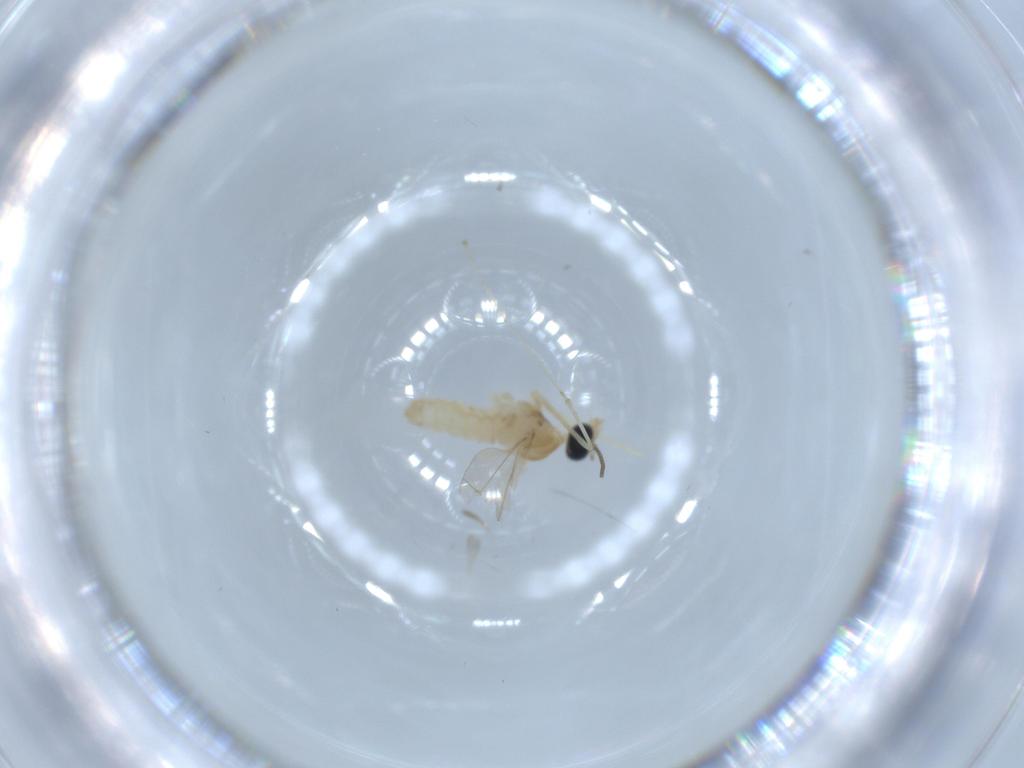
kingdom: Animalia
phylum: Arthropoda
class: Insecta
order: Diptera
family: Cecidomyiidae
